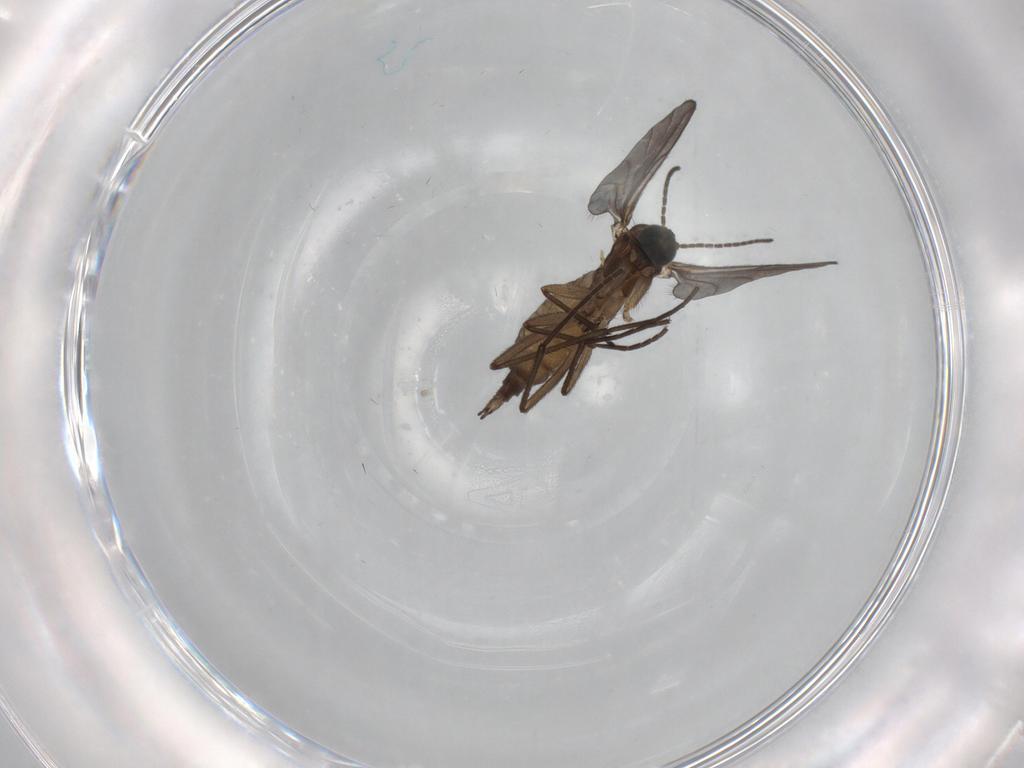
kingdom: Animalia
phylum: Arthropoda
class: Insecta
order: Diptera
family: Sciaridae
